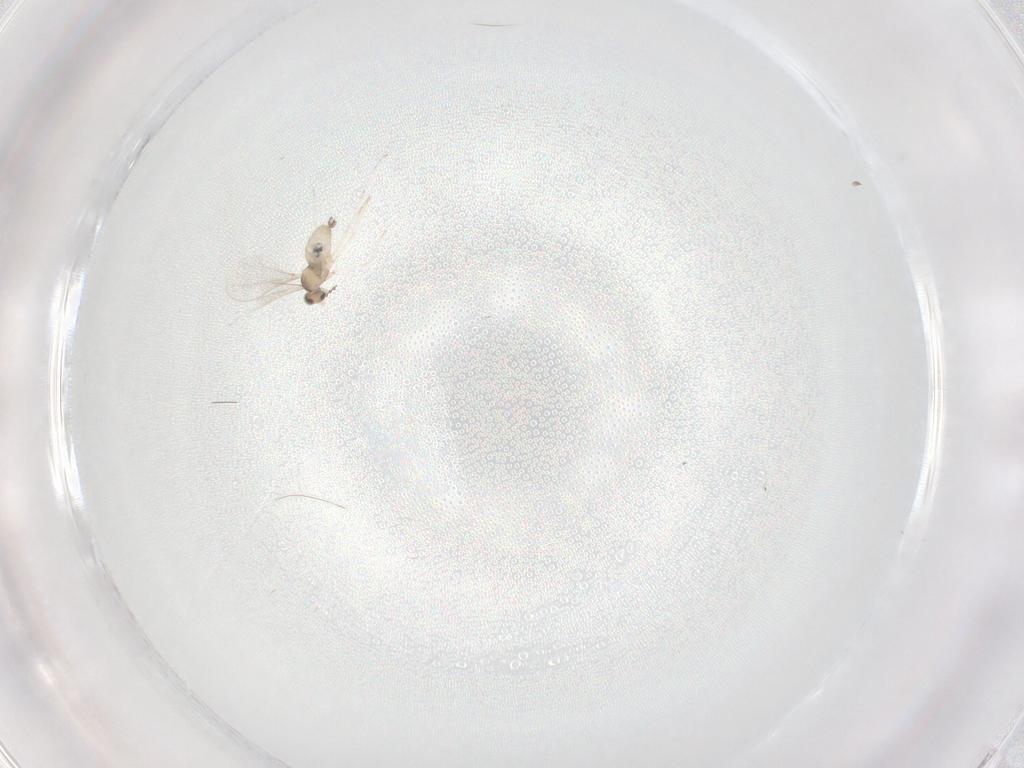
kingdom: Animalia
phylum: Arthropoda
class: Insecta
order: Diptera
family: Cecidomyiidae
